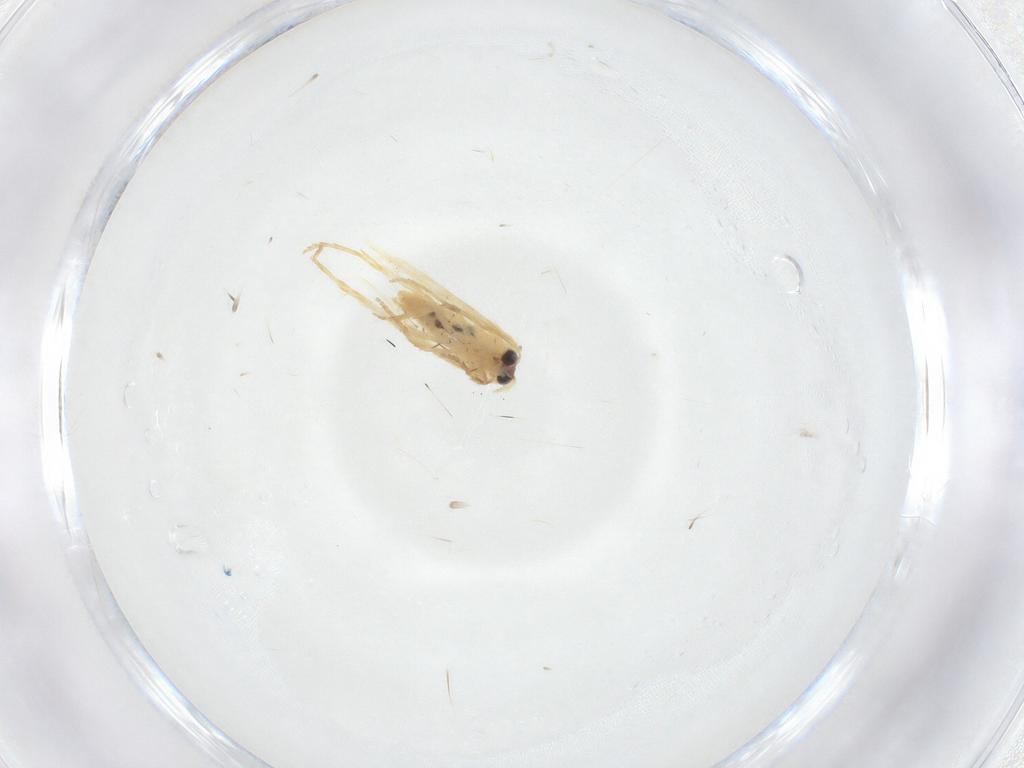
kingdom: Animalia
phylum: Arthropoda
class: Insecta
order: Lepidoptera
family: Nepticulidae
